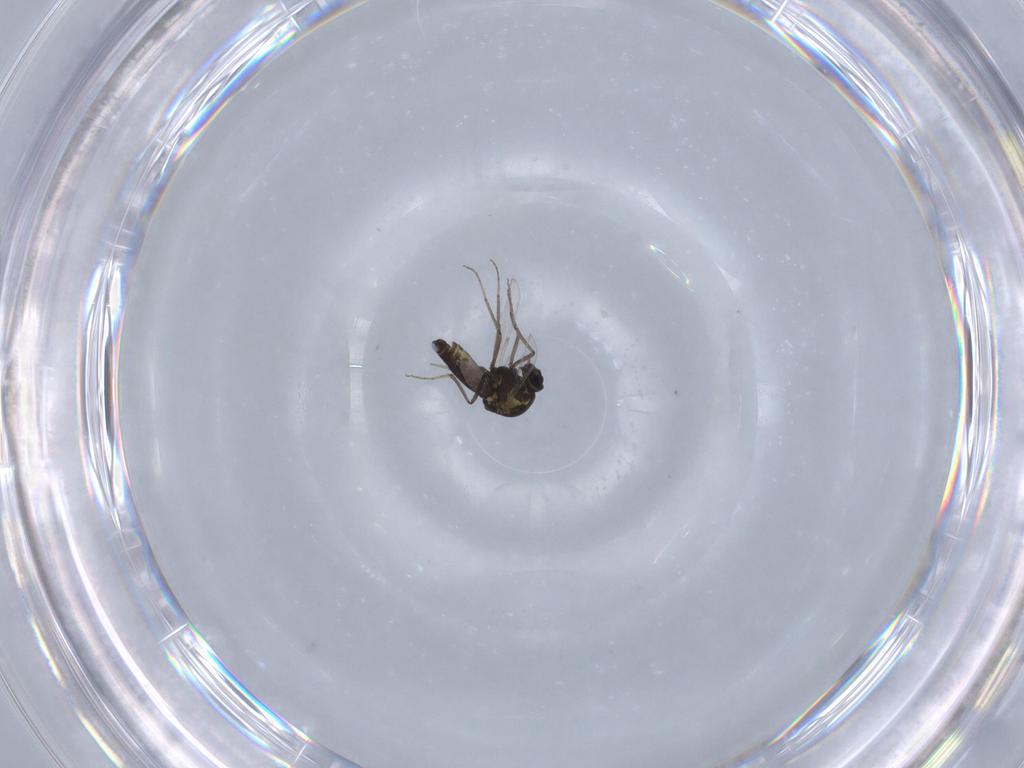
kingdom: Animalia
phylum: Arthropoda
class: Insecta
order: Diptera
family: Ceratopogonidae
